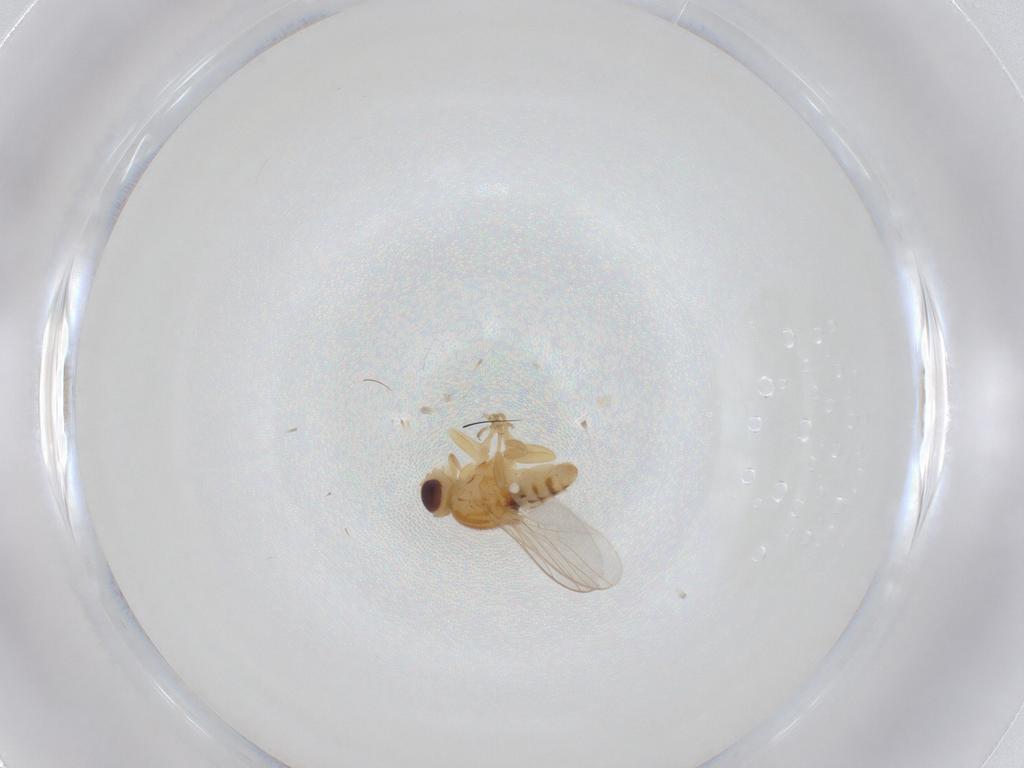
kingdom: Animalia
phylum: Arthropoda
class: Insecta
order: Diptera
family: Chloropidae
